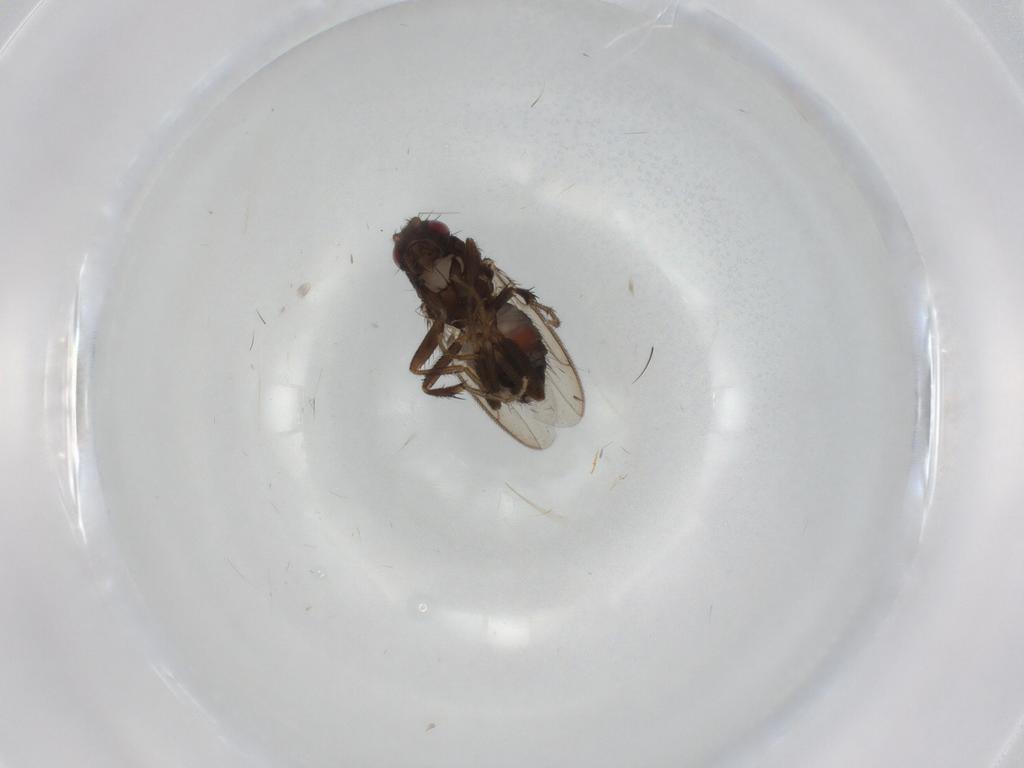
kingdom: Animalia
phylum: Arthropoda
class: Insecta
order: Diptera
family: Sphaeroceridae
